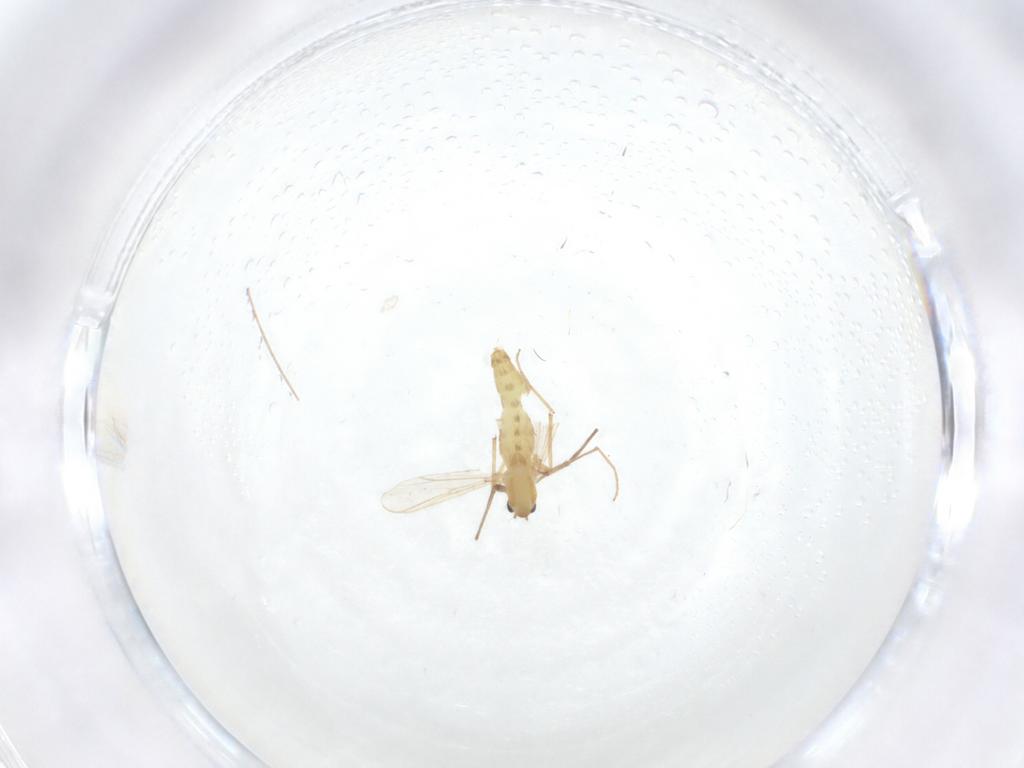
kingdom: Animalia
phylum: Arthropoda
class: Insecta
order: Diptera
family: Chironomidae
